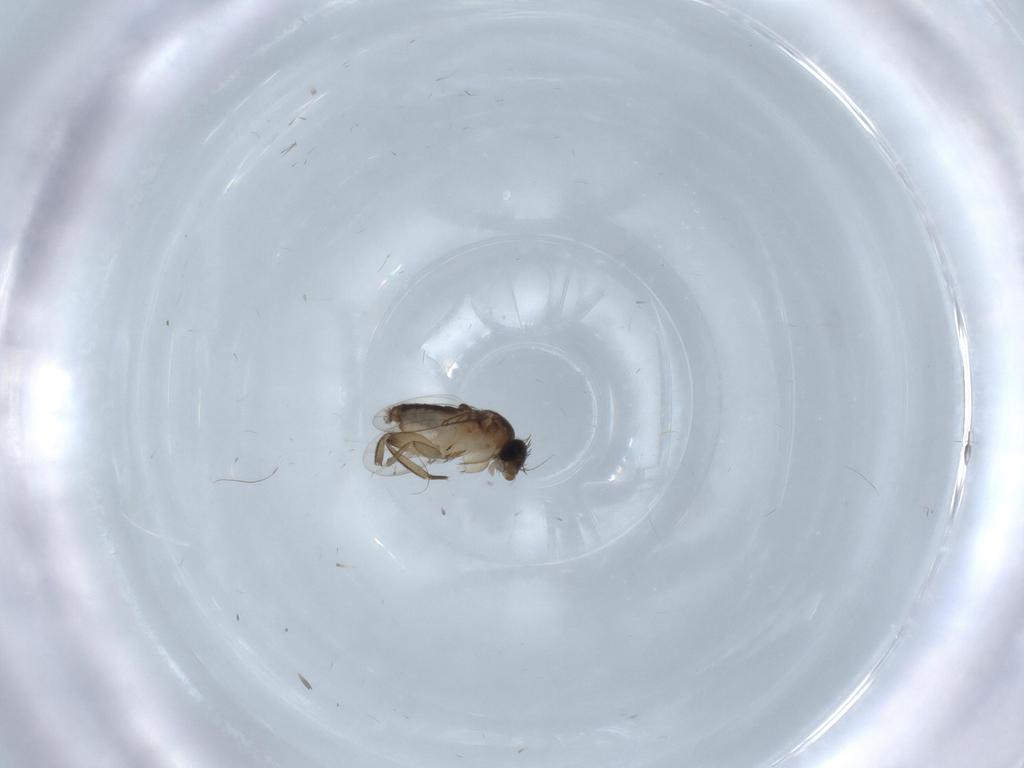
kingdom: Animalia
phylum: Arthropoda
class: Insecta
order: Diptera
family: Phoridae
